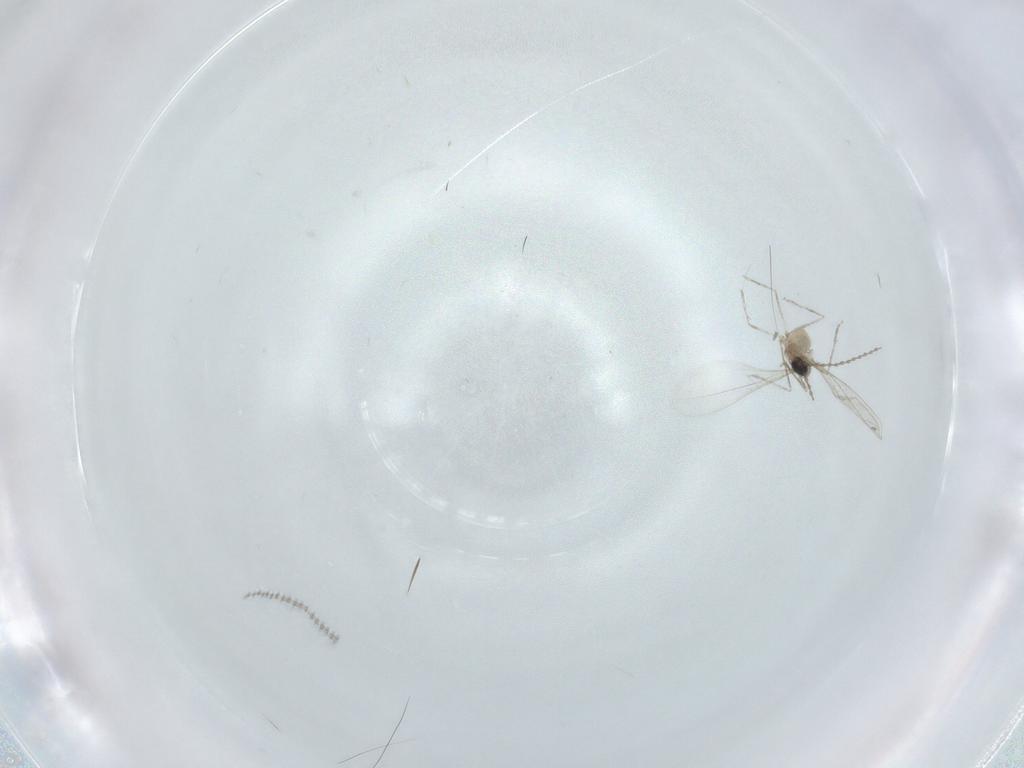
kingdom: Animalia
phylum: Arthropoda
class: Insecta
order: Diptera
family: Cecidomyiidae
